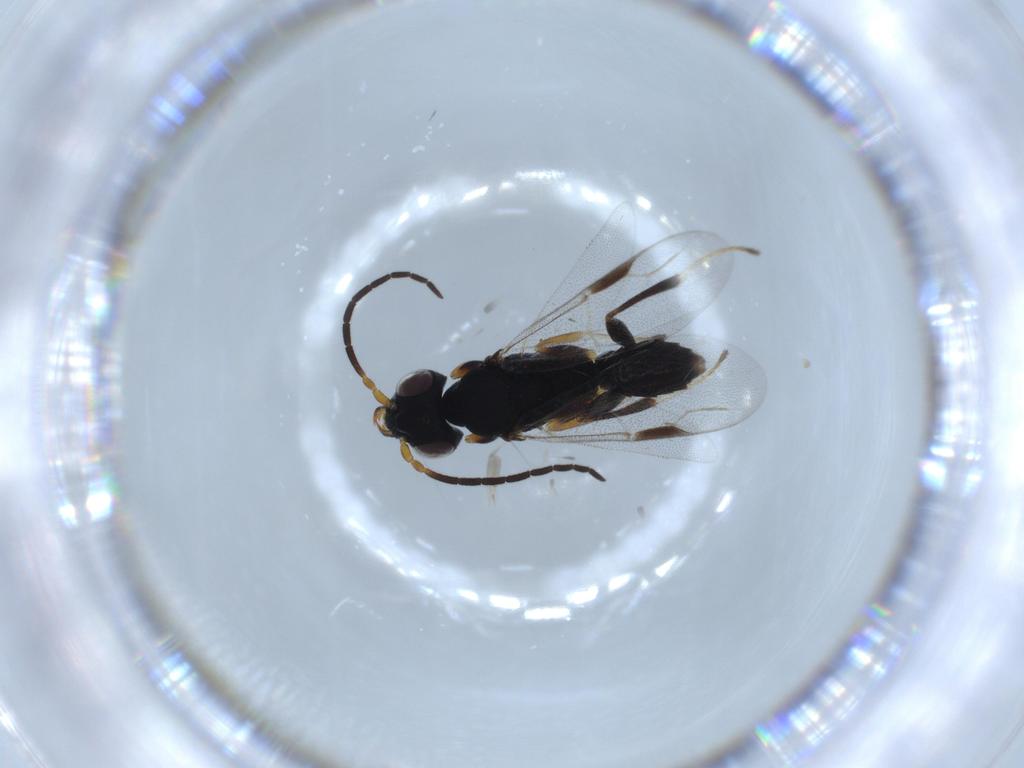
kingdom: Animalia
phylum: Arthropoda
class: Insecta
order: Hymenoptera
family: Dryinidae
